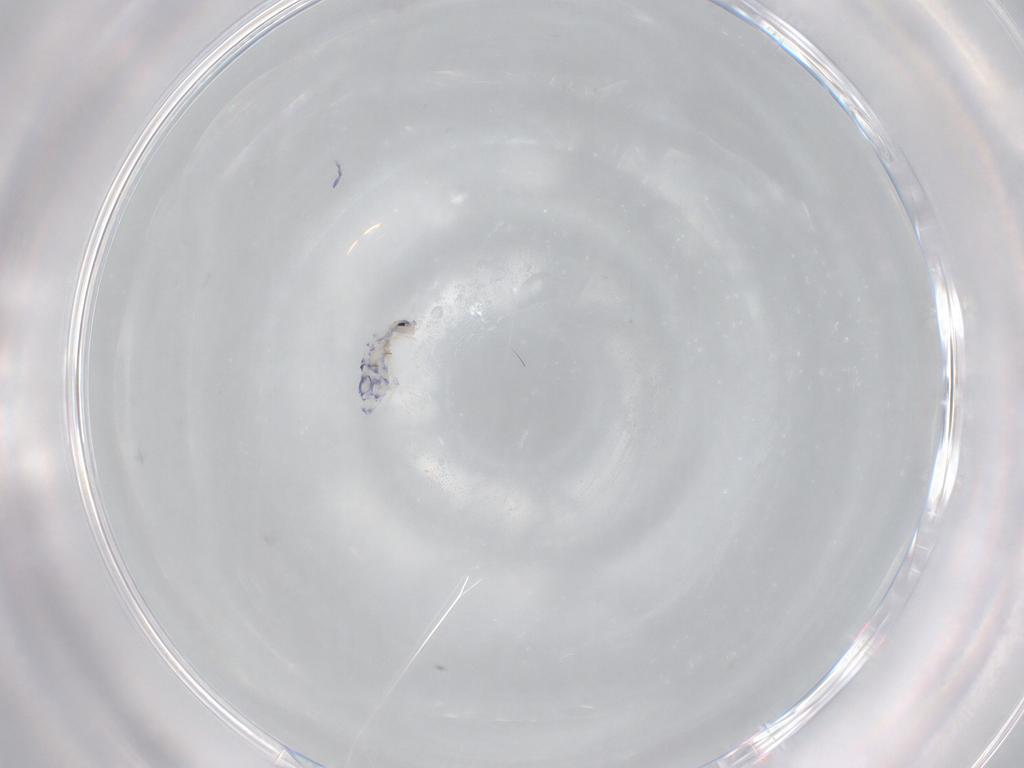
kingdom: Animalia
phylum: Arthropoda
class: Collembola
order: Entomobryomorpha
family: Entomobryidae
